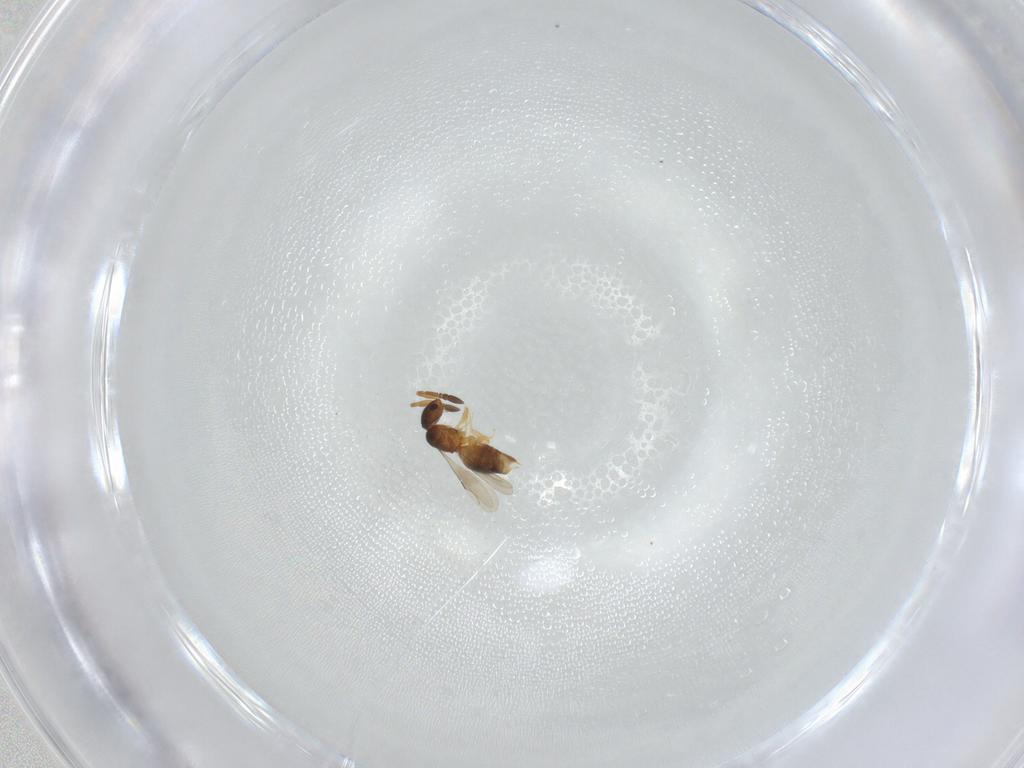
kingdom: Animalia
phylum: Arthropoda
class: Insecta
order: Hymenoptera
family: Eulophidae
